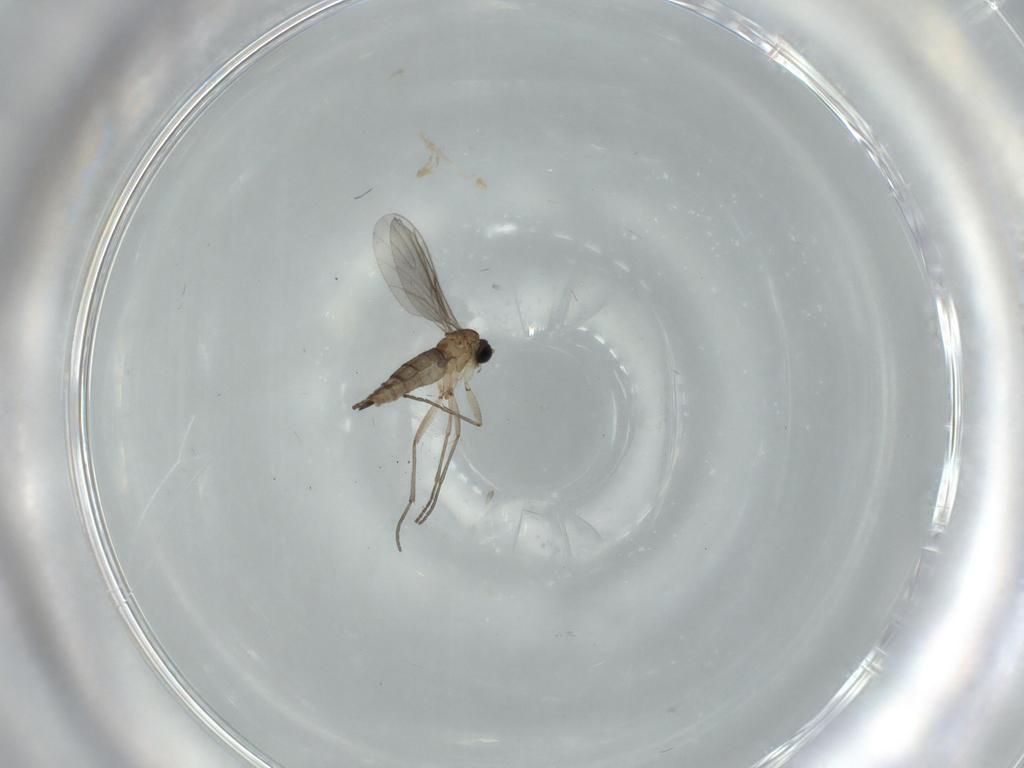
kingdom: Animalia
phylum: Arthropoda
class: Insecta
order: Diptera
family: Sciaridae
